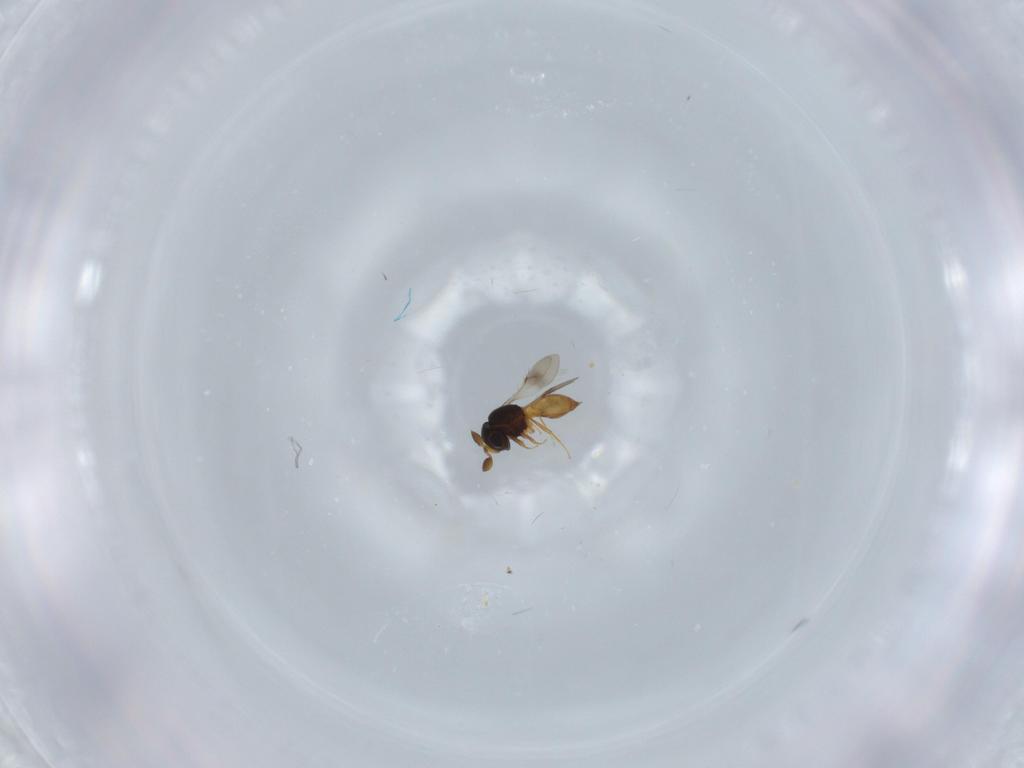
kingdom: Animalia
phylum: Arthropoda
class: Insecta
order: Hymenoptera
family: Scelionidae
